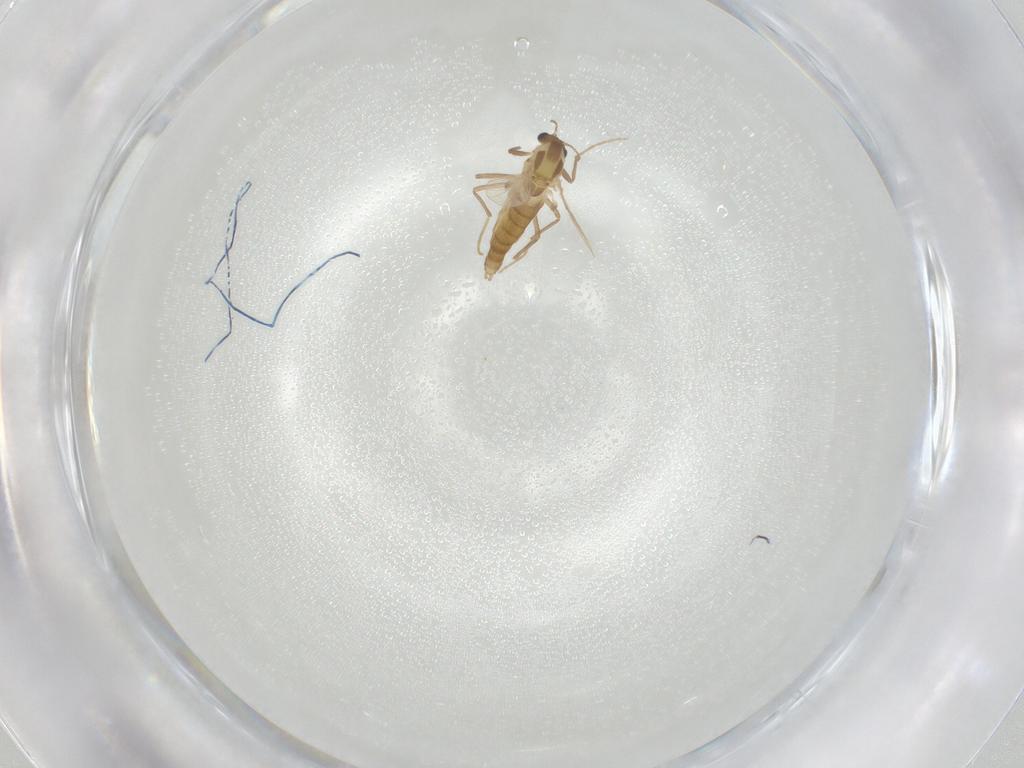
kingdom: Animalia
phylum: Arthropoda
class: Insecta
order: Diptera
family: Chironomidae
